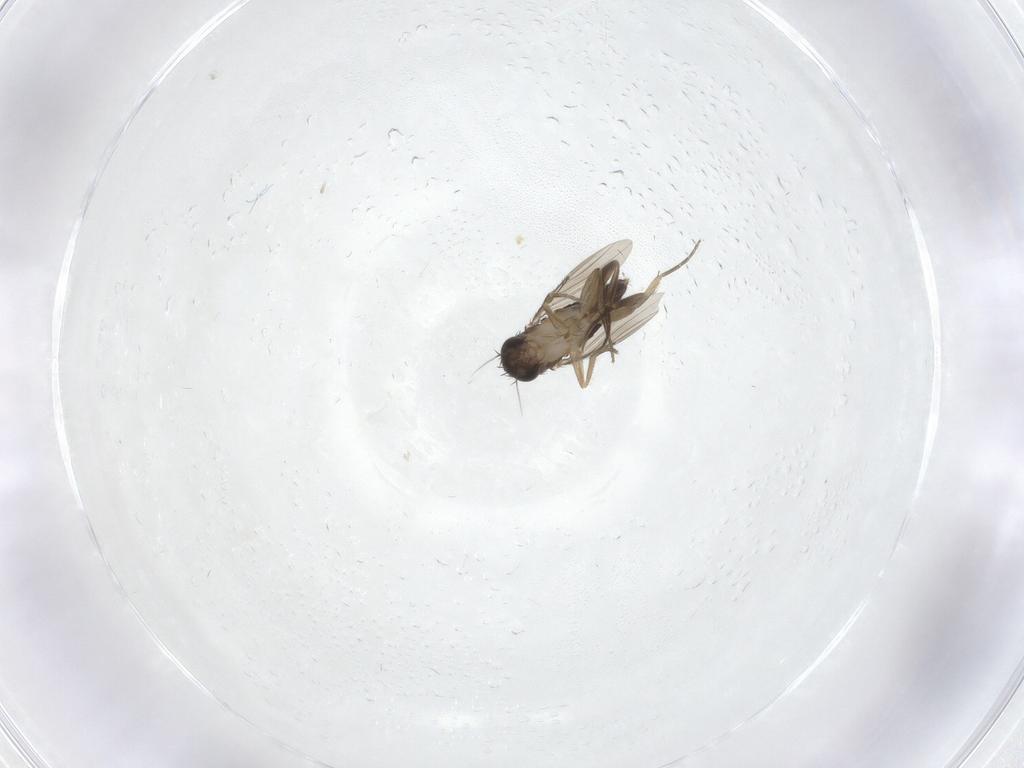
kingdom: Animalia
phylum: Arthropoda
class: Insecta
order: Diptera
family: Phoridae
